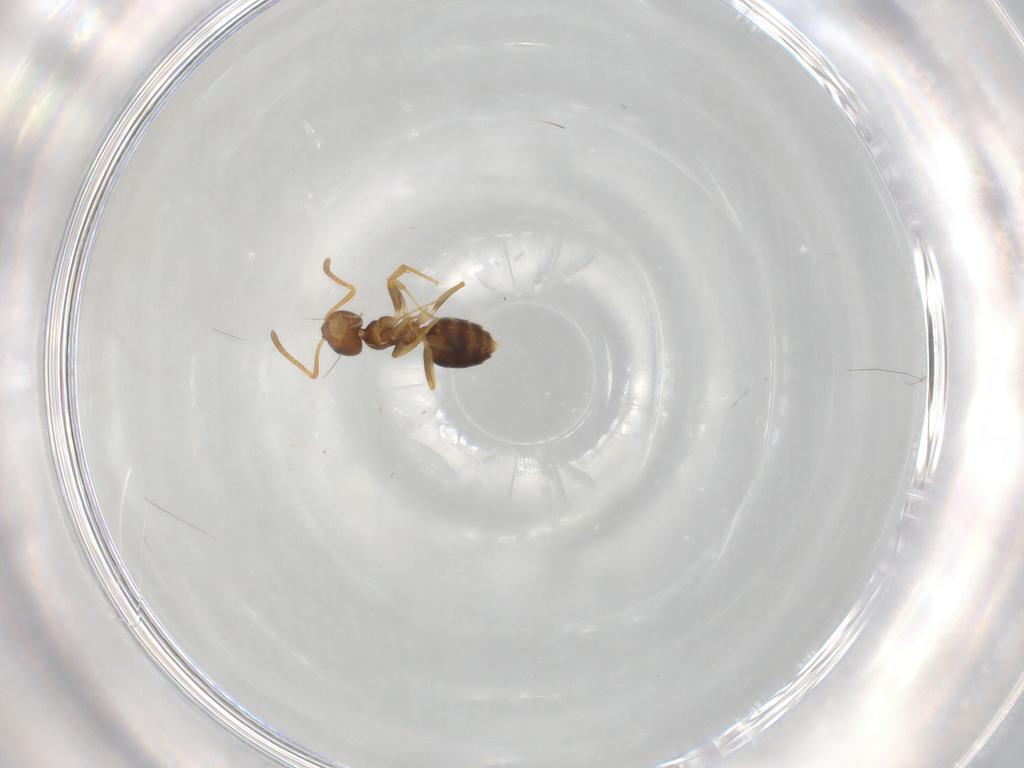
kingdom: Animalia
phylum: Arthropoda
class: Insecta
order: Hymenoptera
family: Formicidae
